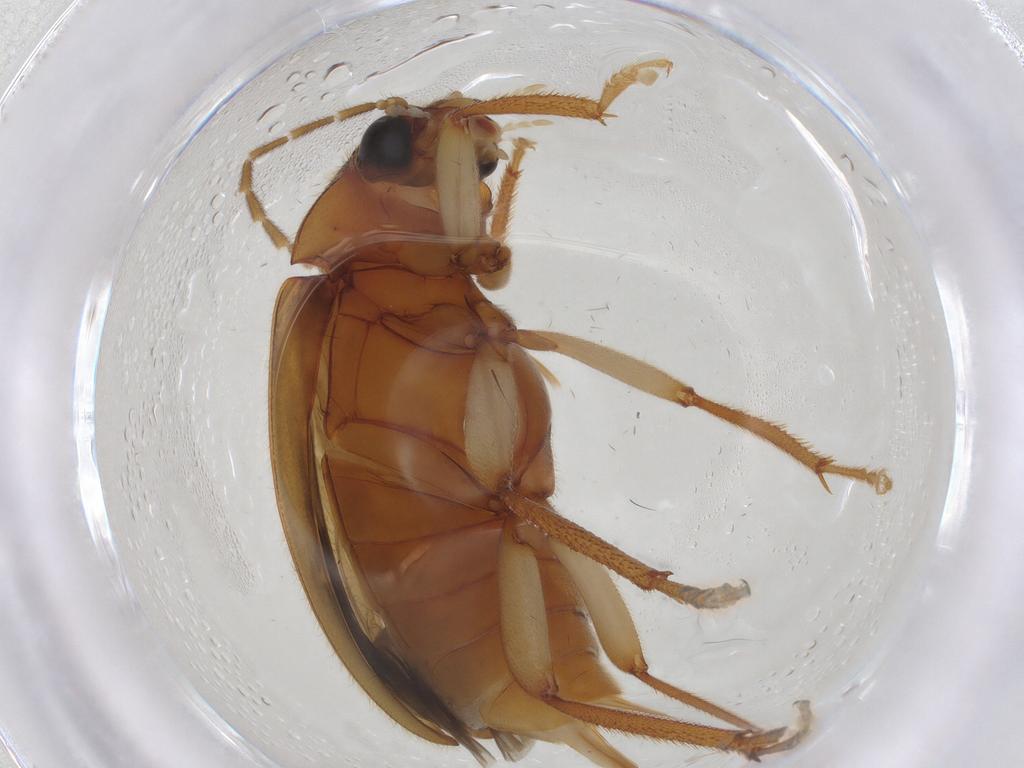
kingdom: Animalia
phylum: Arthropoda
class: Insecta
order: Coleoptera
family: Ptilodactylidae
